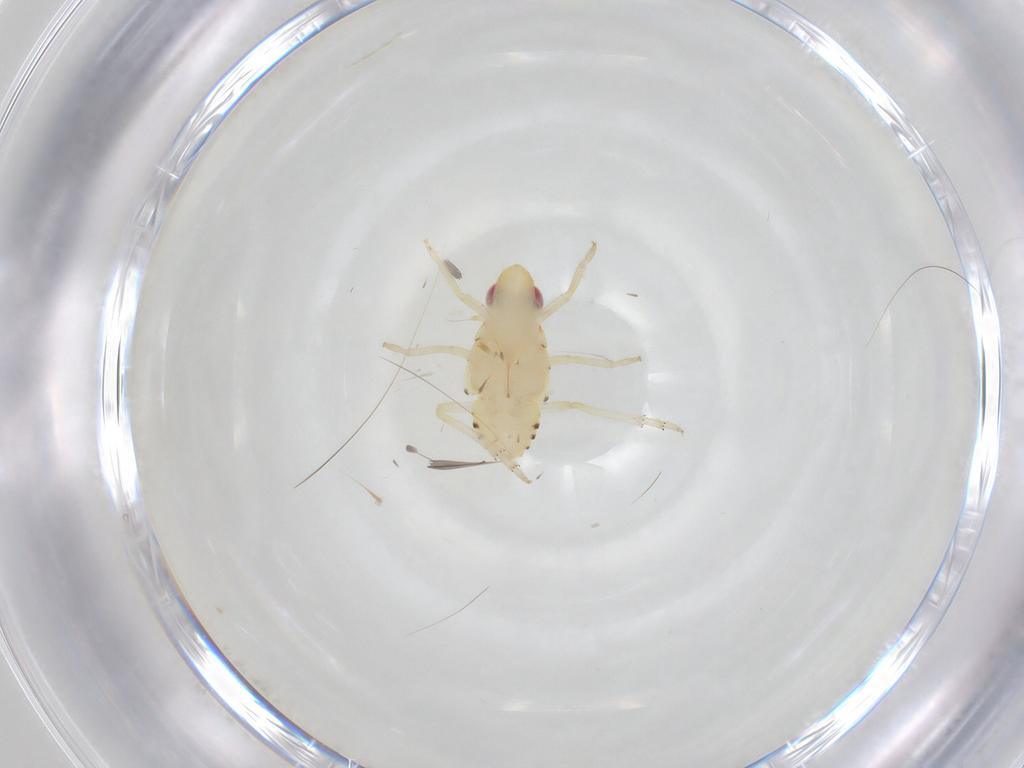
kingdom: Animalia
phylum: Arthropoda
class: Insecta
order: Hemiptera
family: Tropiduchidae
